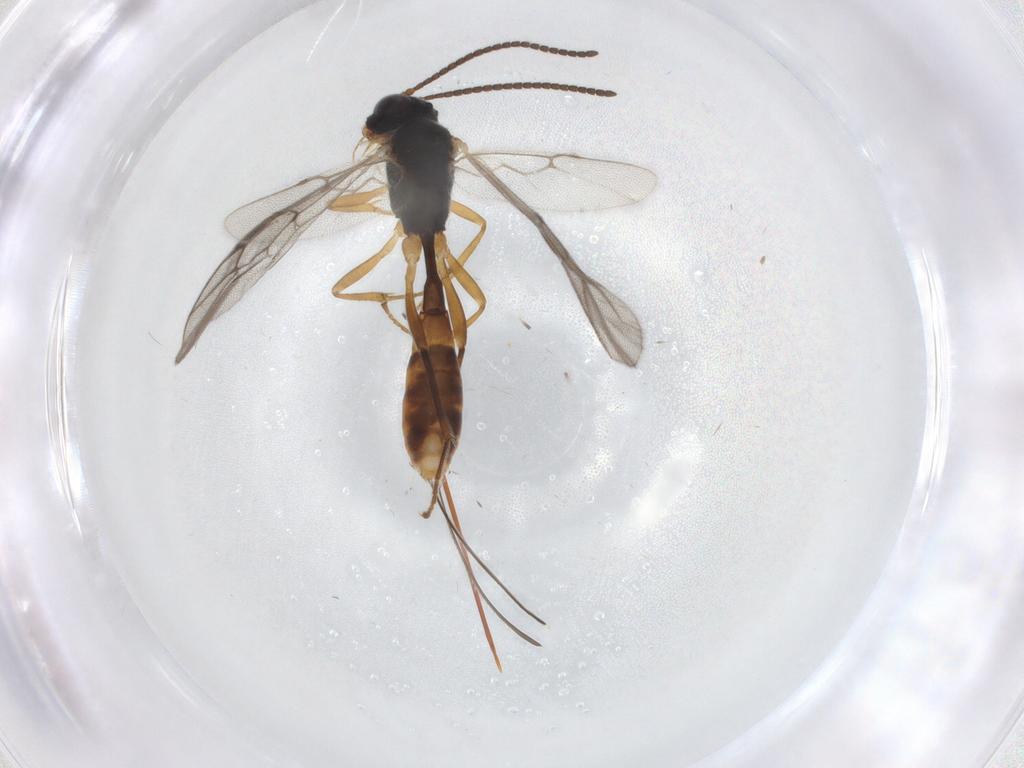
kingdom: Animalia
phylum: Arthropoda
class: Insecta
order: Hymenoptera
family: Ichneumonidae
